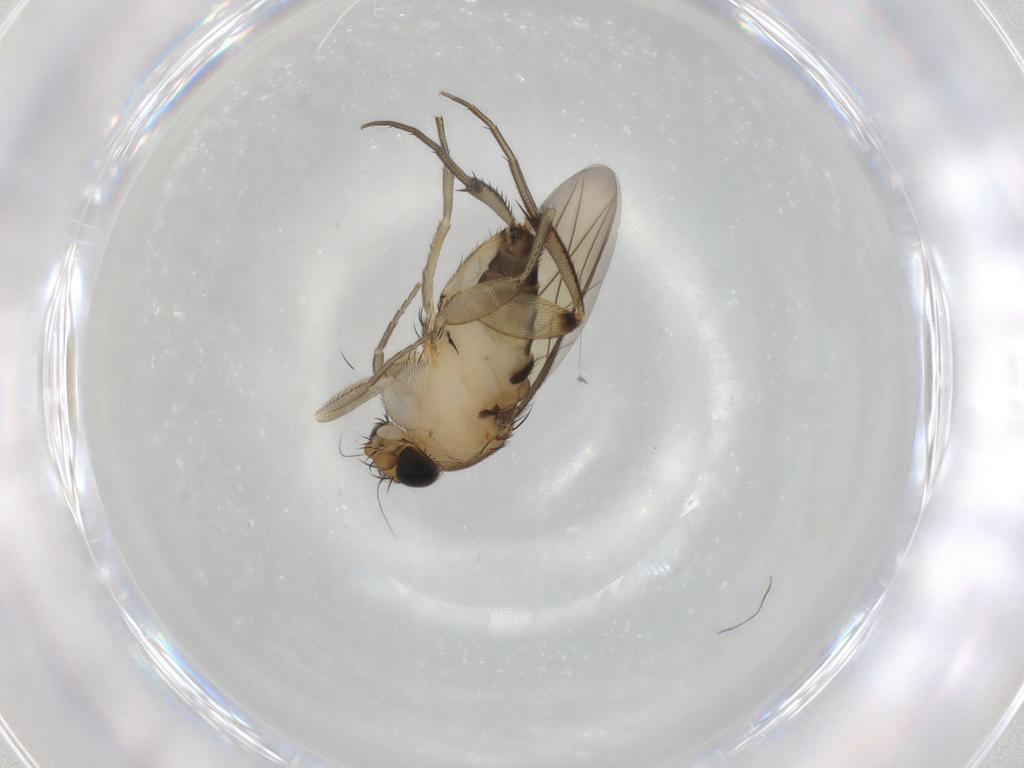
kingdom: Animalia
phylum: Arthropoda
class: Insecta
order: Diptera
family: Phoridae
